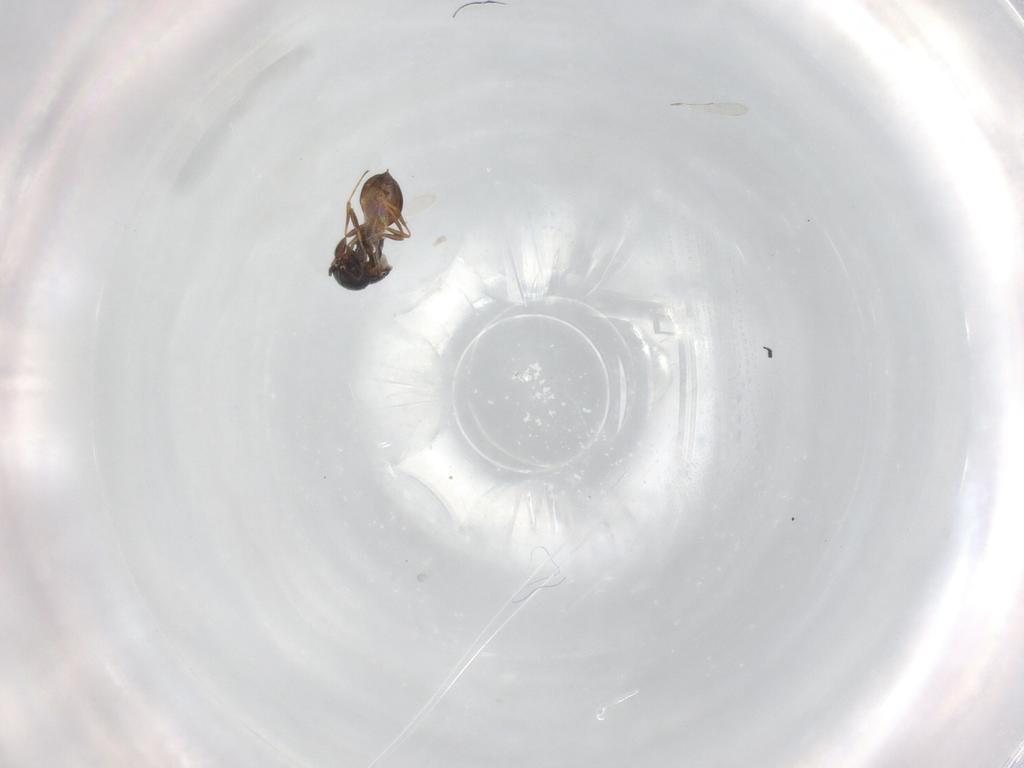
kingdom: Animalia
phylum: Arthropoda
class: Insecta
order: Hymenoptera
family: Scelionidae
